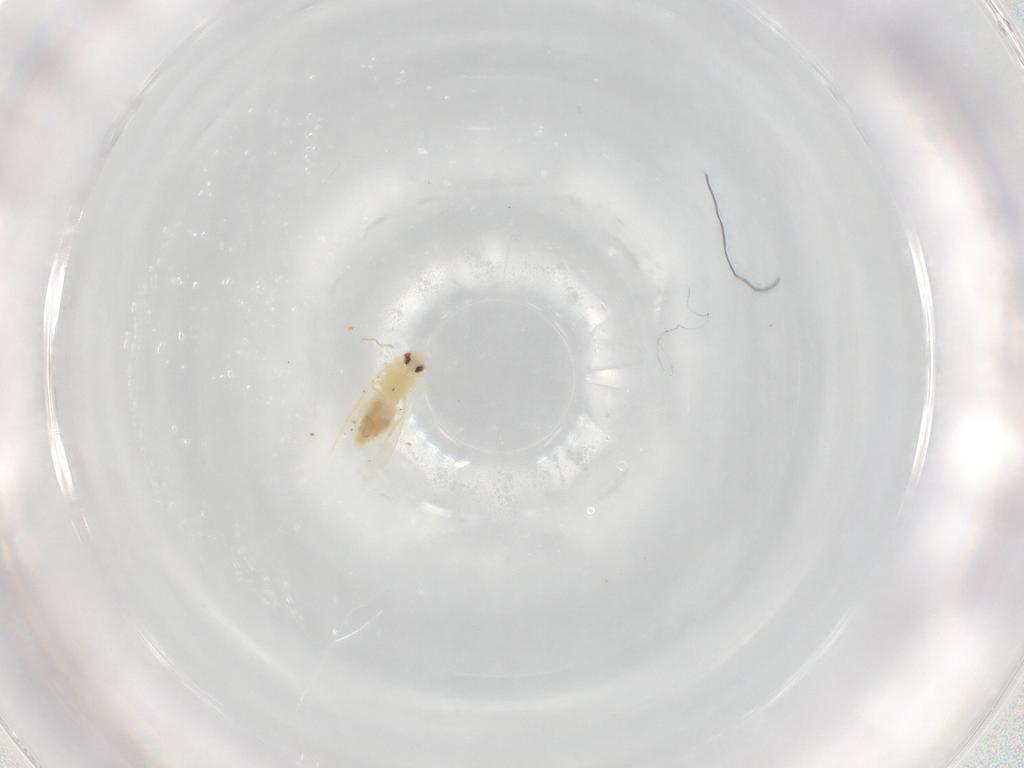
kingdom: Animalia
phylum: Arthropoda
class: Insecta
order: Hemiptera
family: Aleyrodidae
